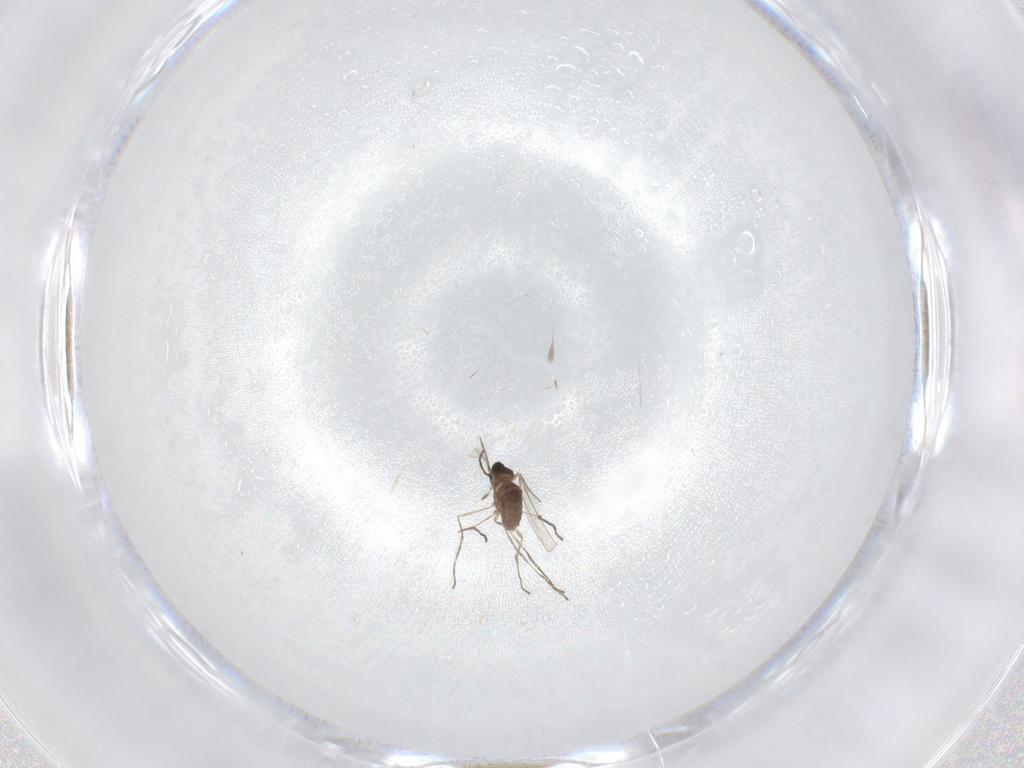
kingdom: Animalia
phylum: Arthropoda
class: Insecta
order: Diptera
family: Cecidomyiidae
